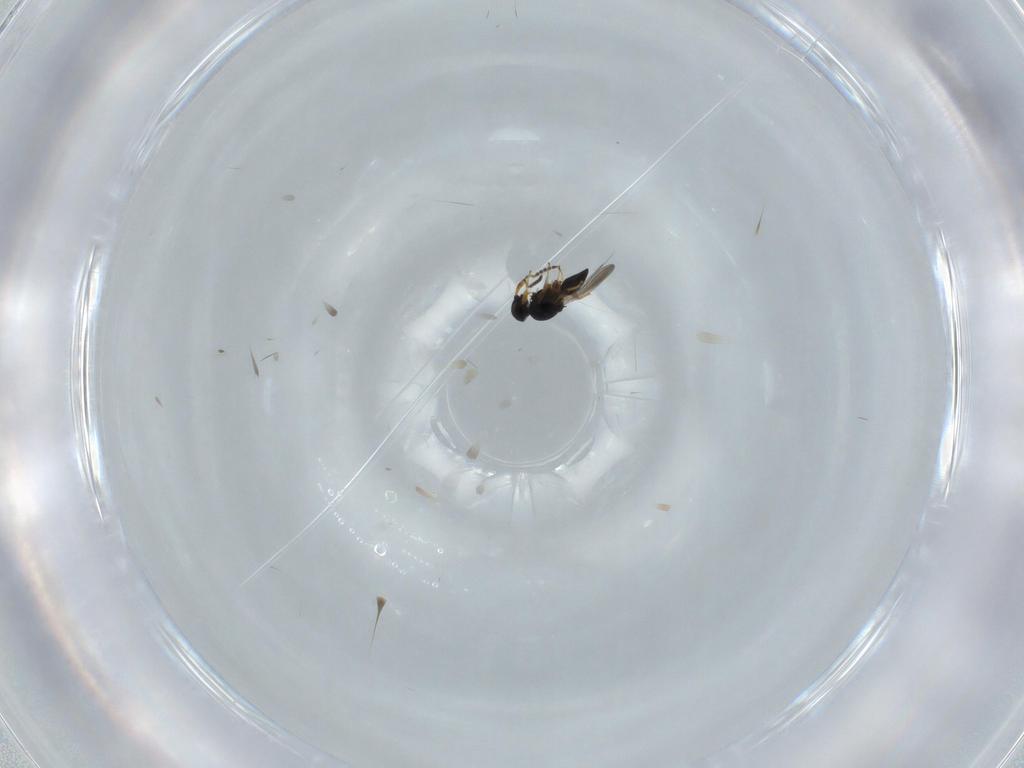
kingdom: Animalia
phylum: Arthropoda
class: Insecta
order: Hymenoptera
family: Platygastridae
